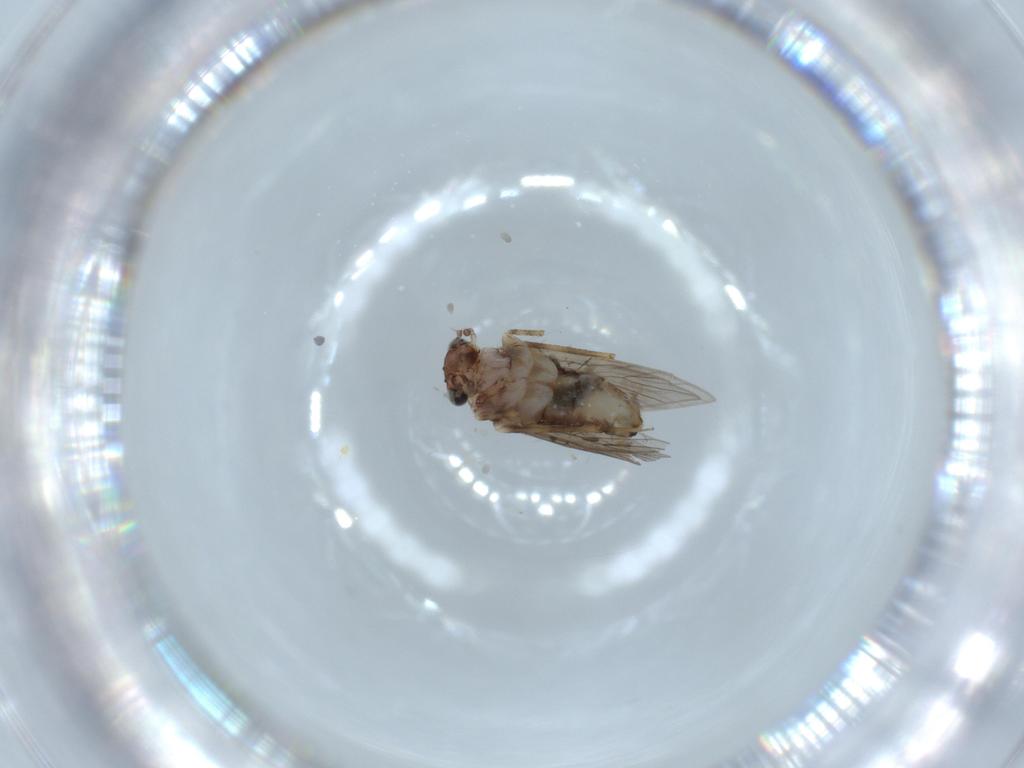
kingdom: Animalia
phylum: Arthropoda
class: Insecta
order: Psocodea
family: Lepidopsocidae
